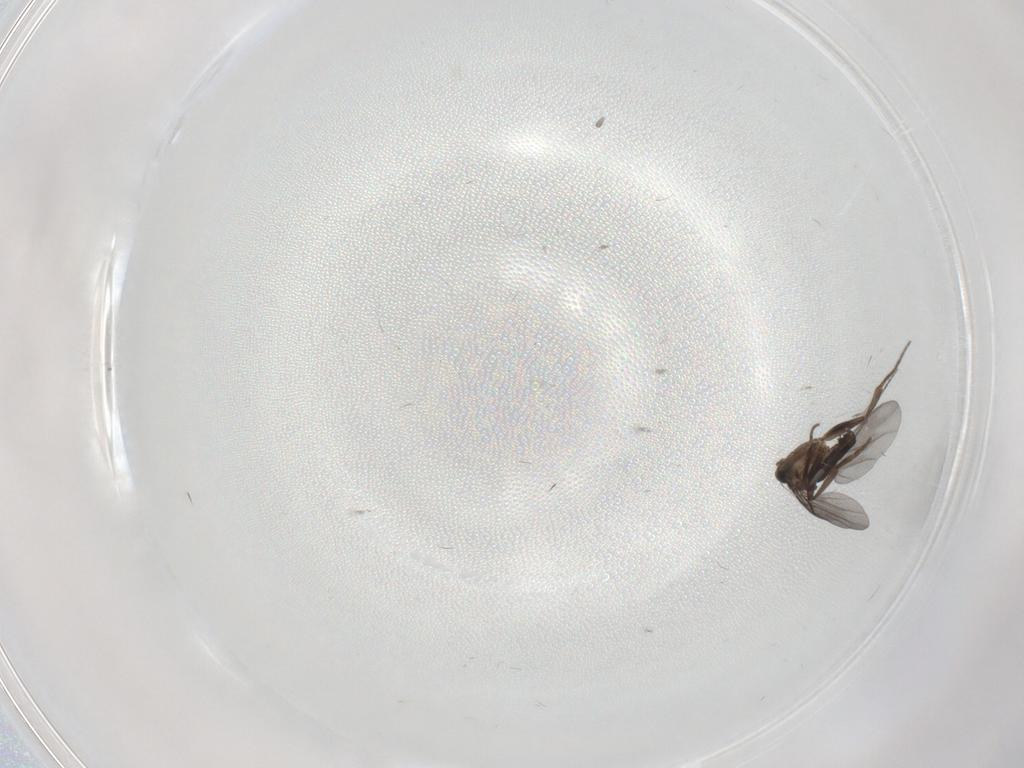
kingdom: Animalia
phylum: Arthropoda
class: Insecta
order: Diptera
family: Phoridae
